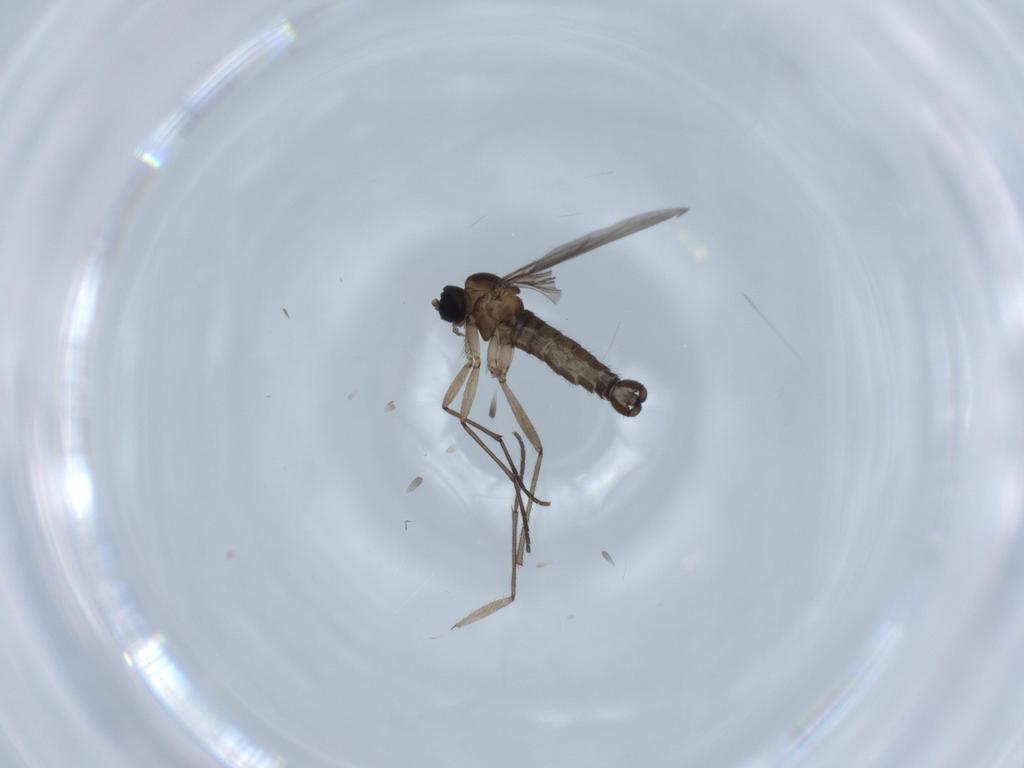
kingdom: Animalia
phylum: Arthropoda
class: Insecta
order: Diptera
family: Sciaridae
